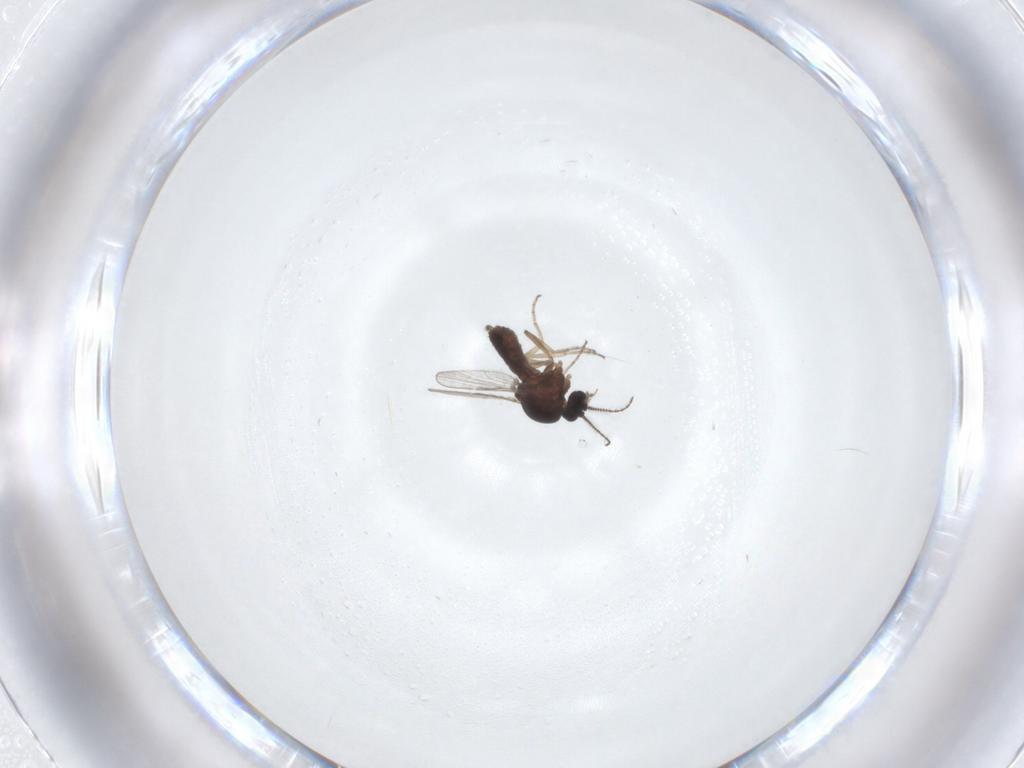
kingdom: Animalia
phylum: Arthropoda
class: Insecta
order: Diptera
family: Ceratopogonidae
